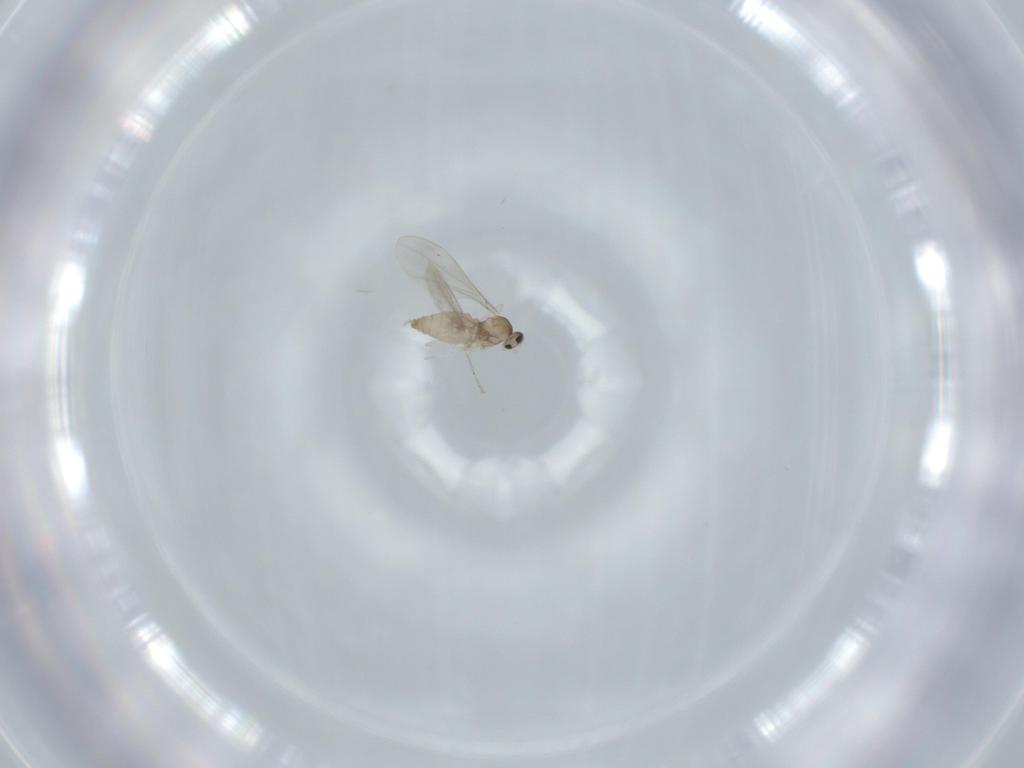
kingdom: Animalia
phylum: Arthropoda
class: Insecta
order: Diptera
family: Cecidomyiidae
